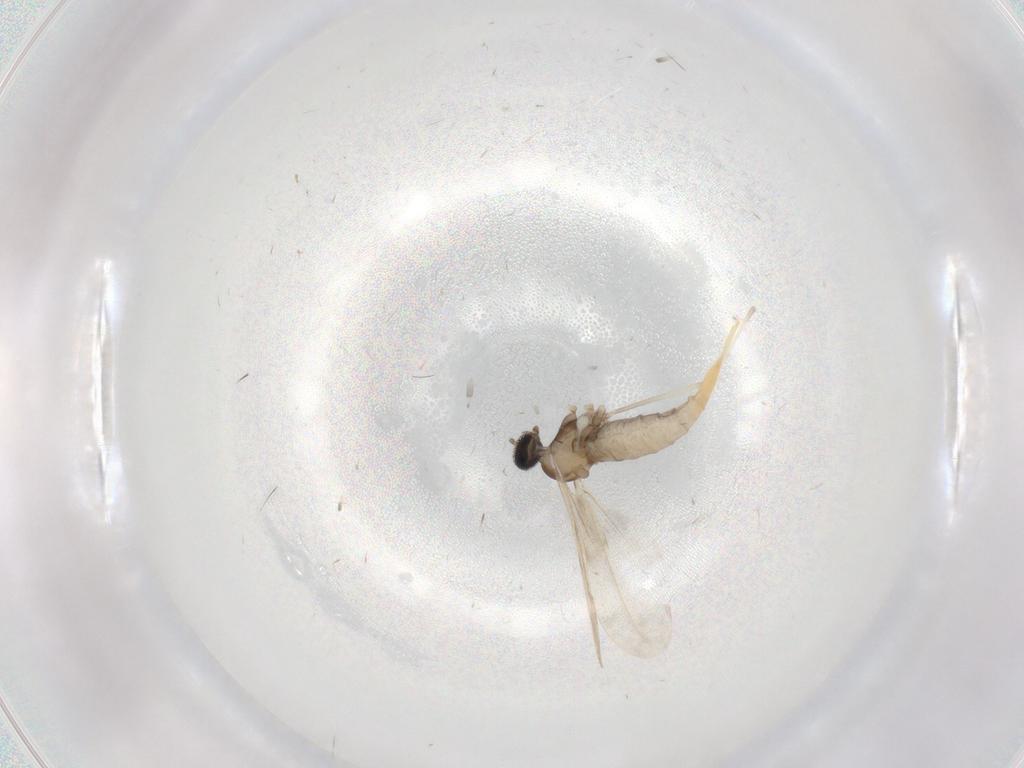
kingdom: Animalia
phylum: Arthropoda
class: Insecta
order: Diptera
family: Cecidomyiidae
